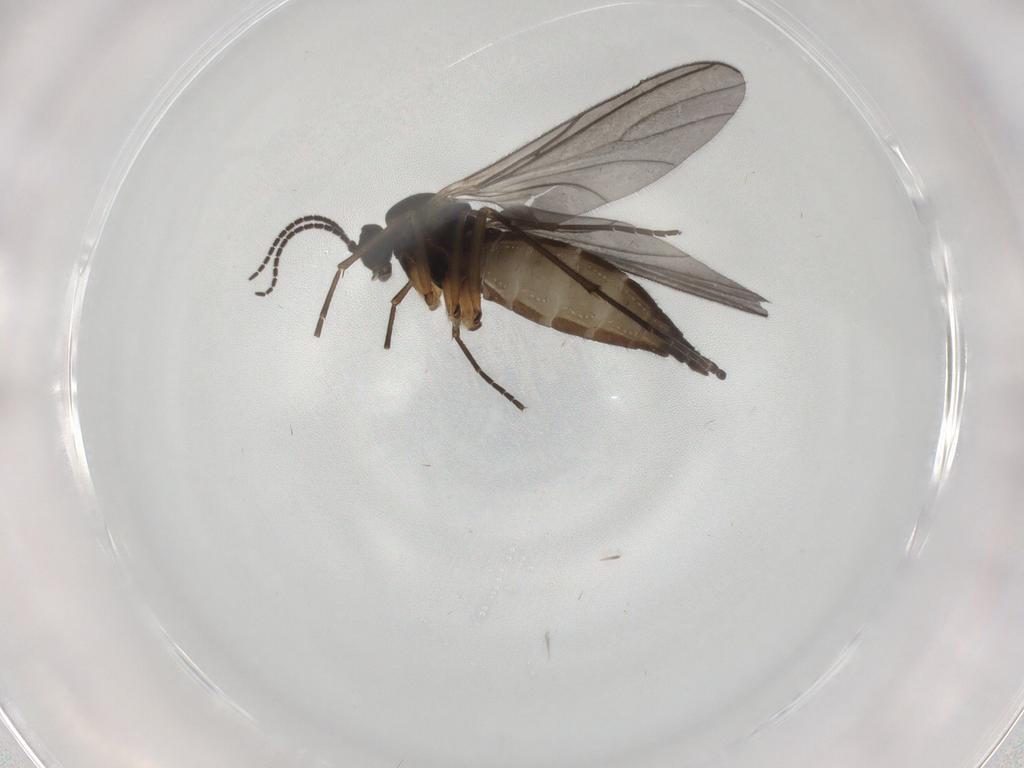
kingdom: Animalia
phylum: Arthropoda
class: Insecta
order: Diptera
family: Sciaridae
